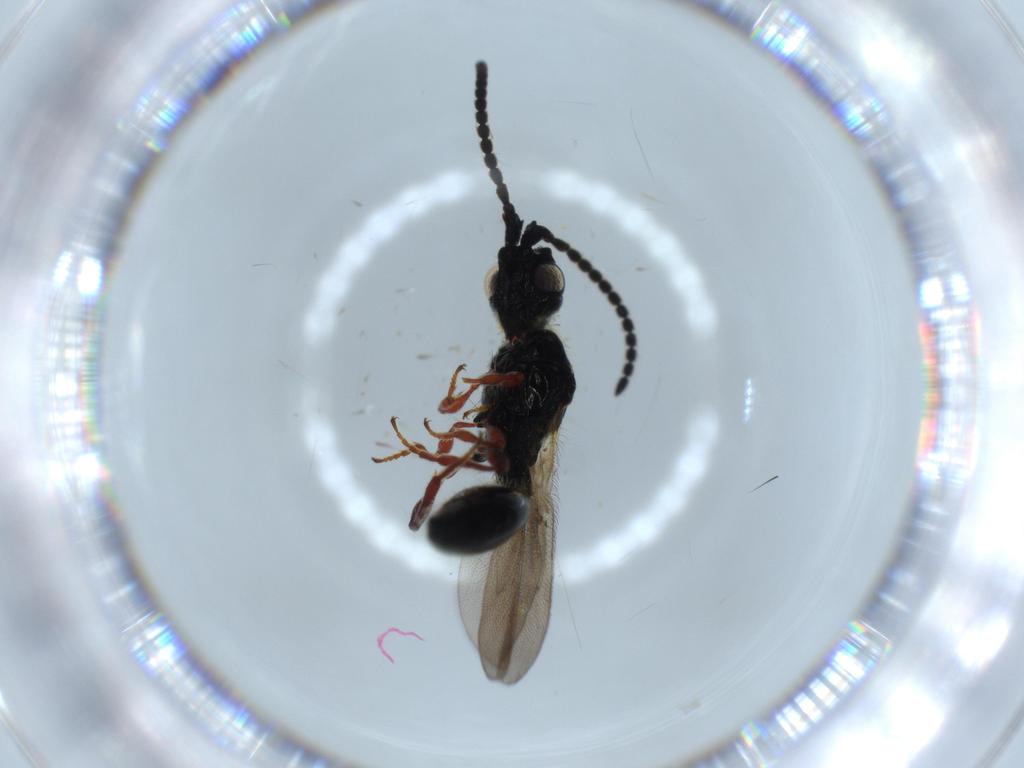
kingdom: Animalia
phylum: Arthropoda
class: Insecta
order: Hymenoptera
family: Diapriidae
